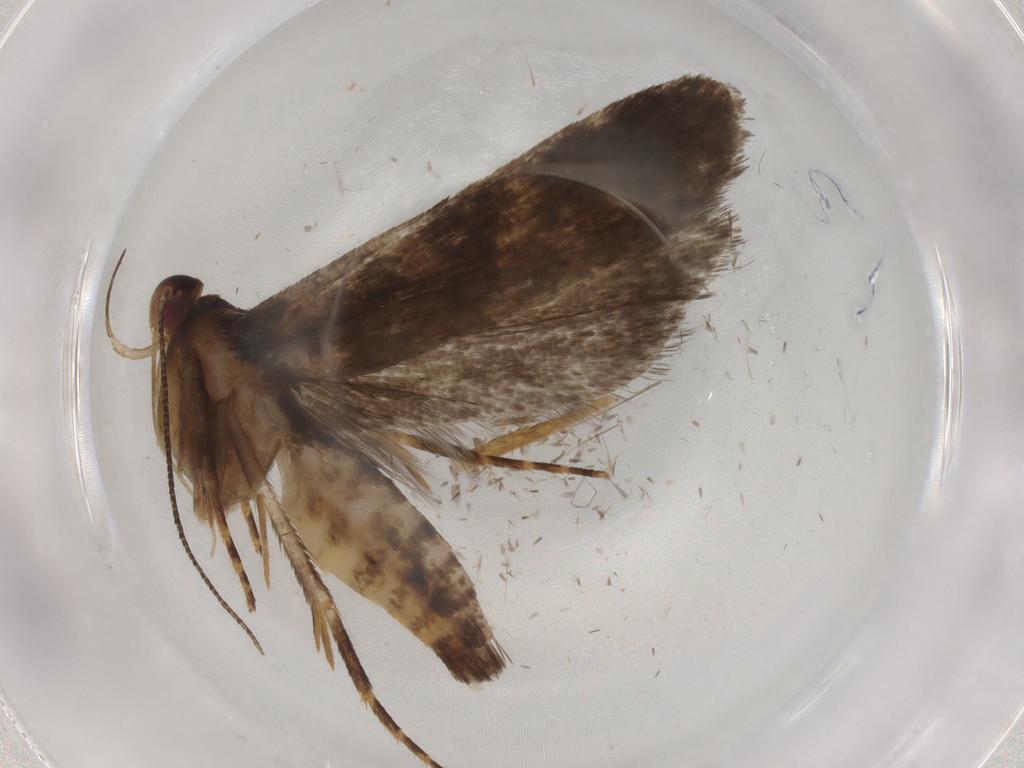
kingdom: Animalia
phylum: Arthropoda
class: Insecta
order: Lepidoptera
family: Gelechiidae
